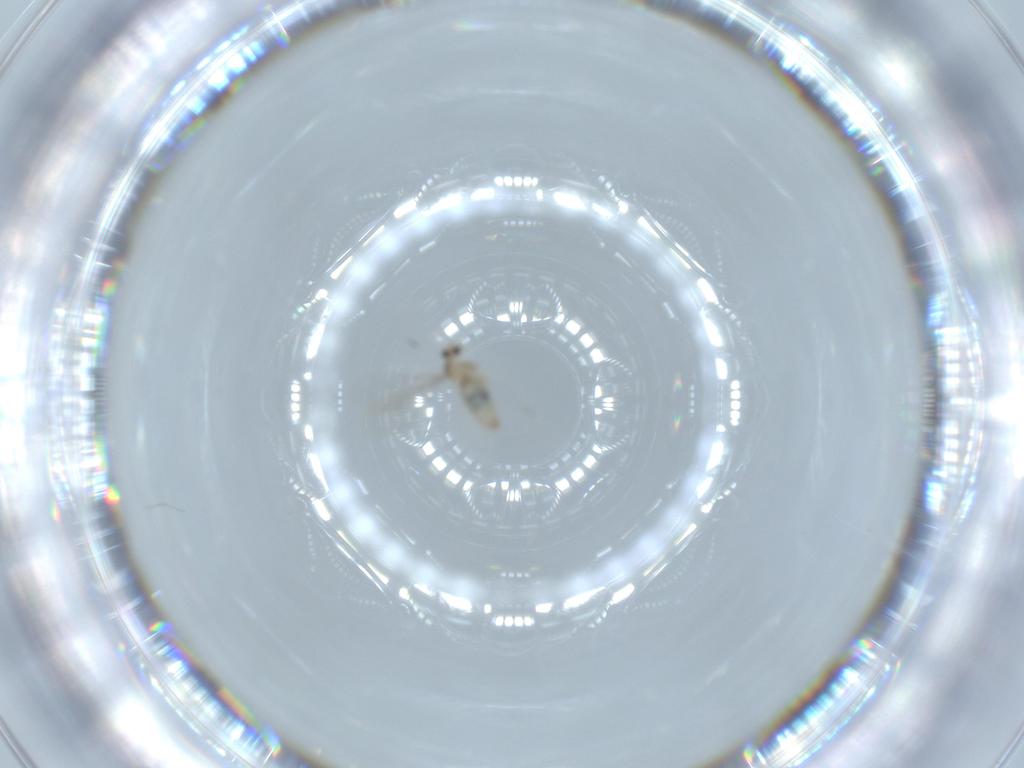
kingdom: Animalia
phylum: Arthropoda
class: Insecta
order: Diptera
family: Cecidomyiidae
